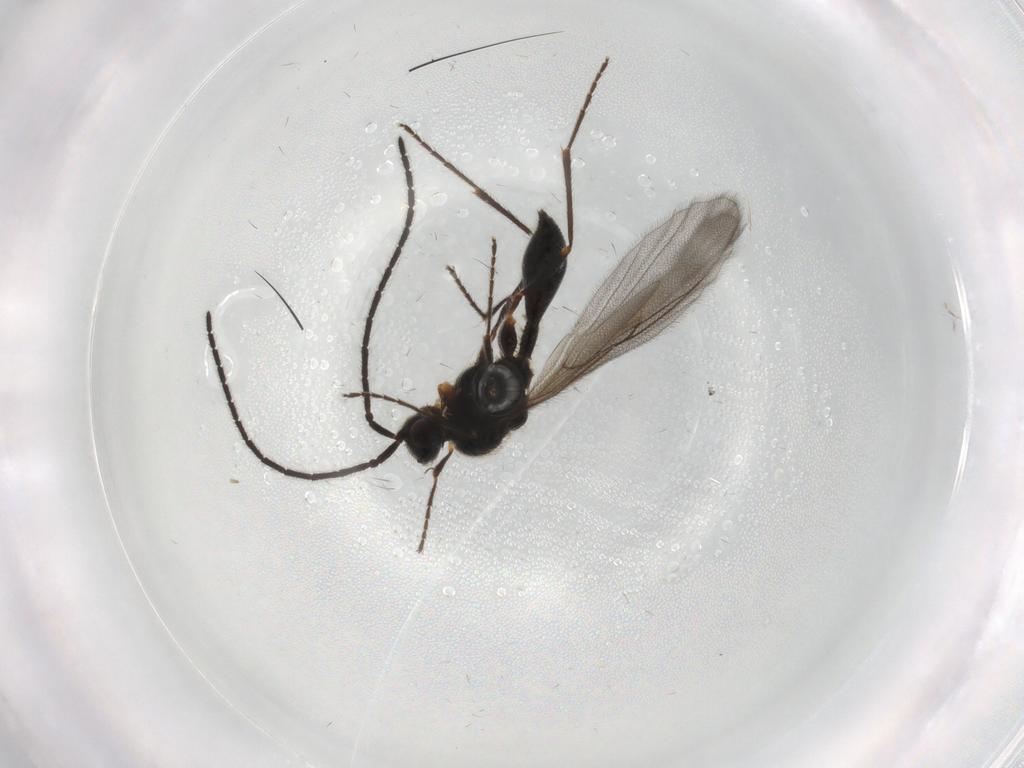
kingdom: Animalia
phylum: Arthropoda
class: Insecta
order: Hymenoptera
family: Diapriidae
